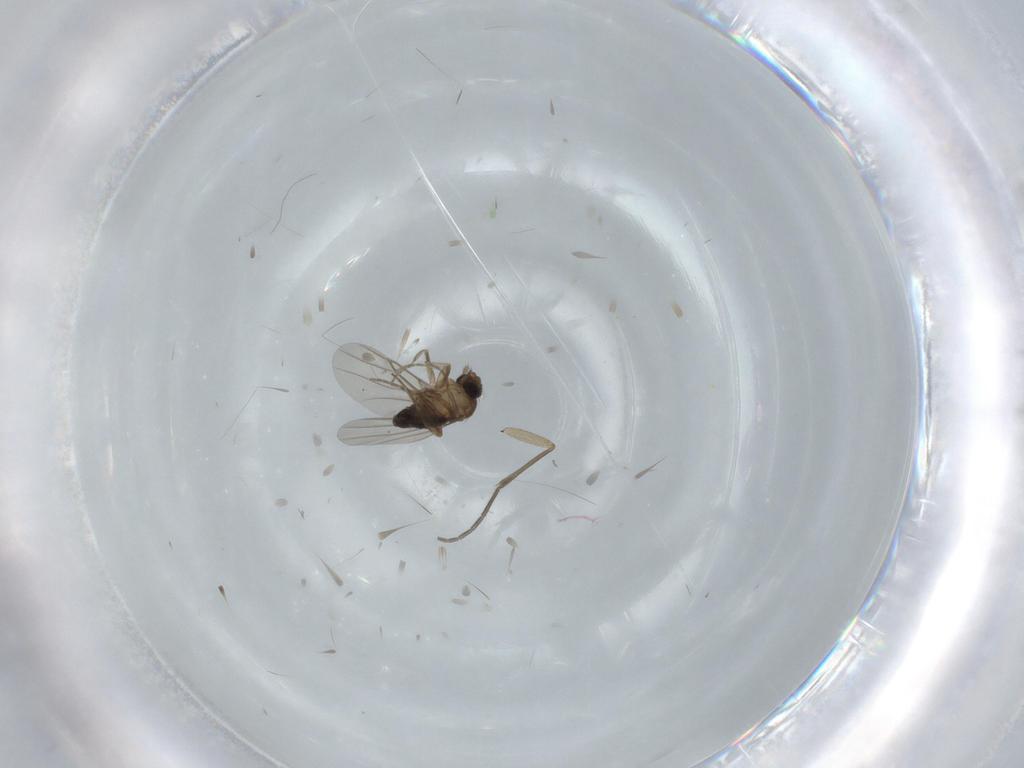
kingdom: Animalia
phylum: Arthropoda
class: Insecta
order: Diptera
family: Phoridae
